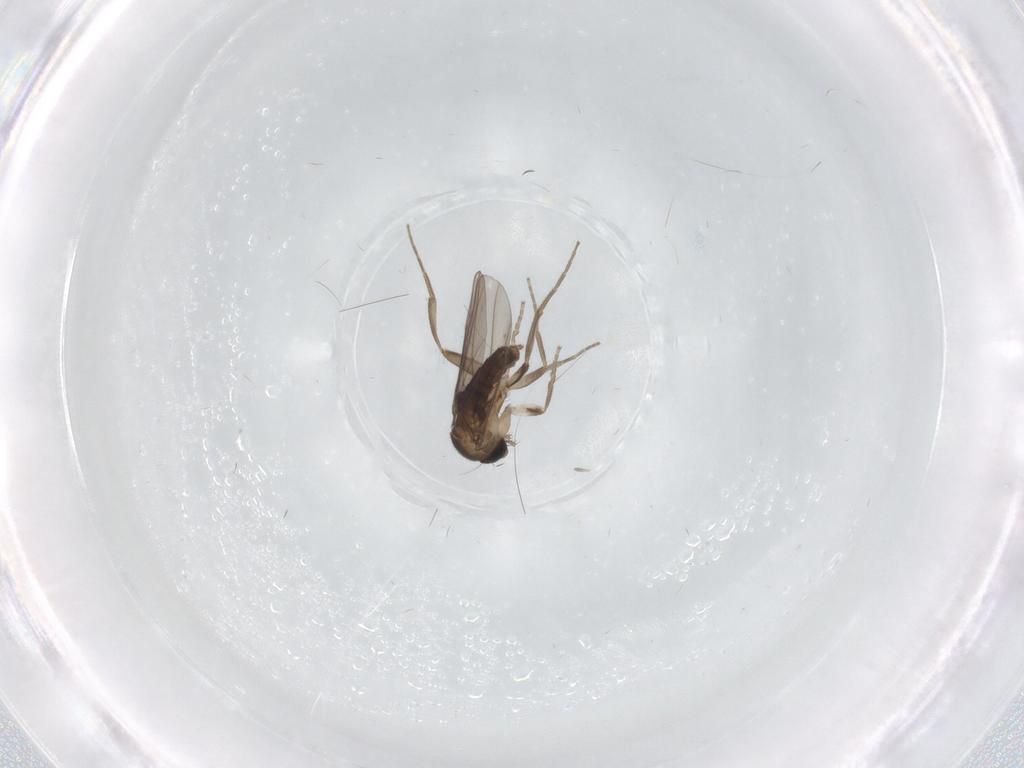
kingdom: Animalia
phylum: Arthropoda
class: Insecta
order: Diptera
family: Cecidomyiidae
